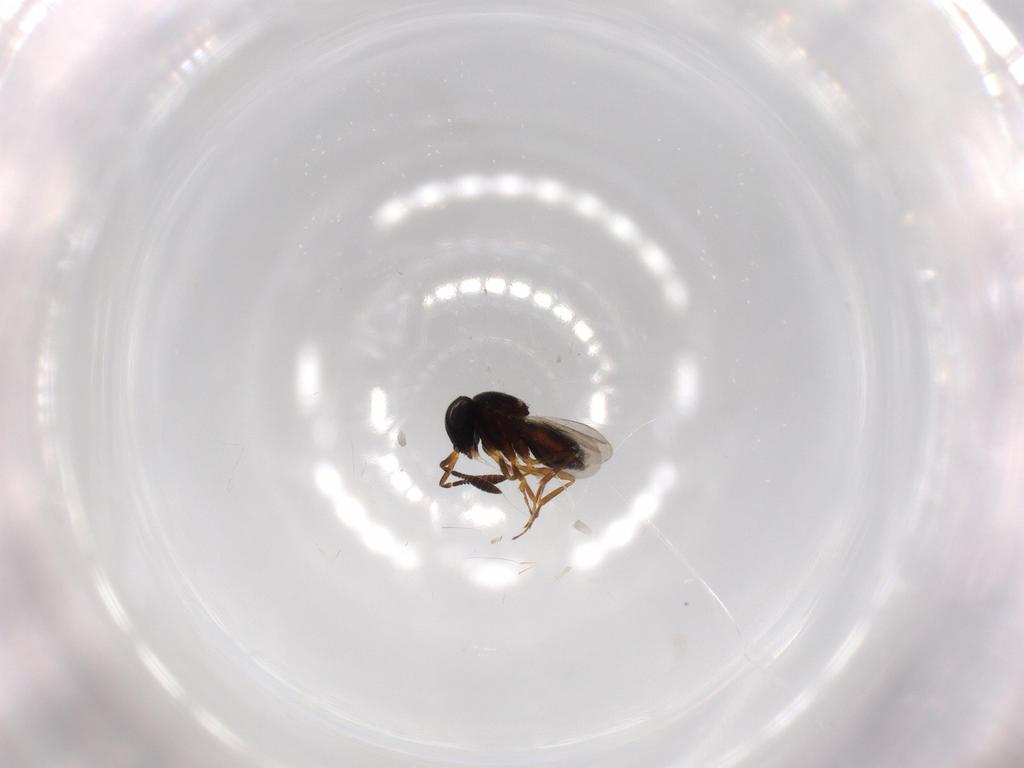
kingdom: Animalia
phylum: Arthropoda
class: Insecta
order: Hymenoptera
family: Scelionidae
